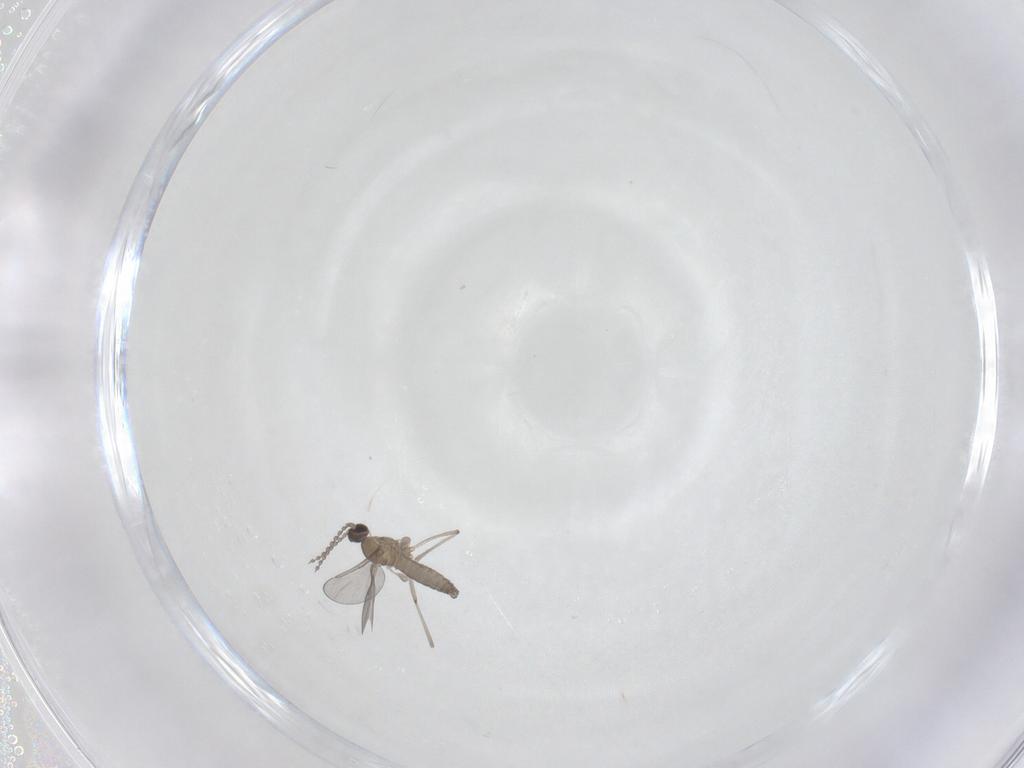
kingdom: Animalia
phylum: Arthropoda
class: Insecta
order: Diptera
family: Cecidomyiidae
